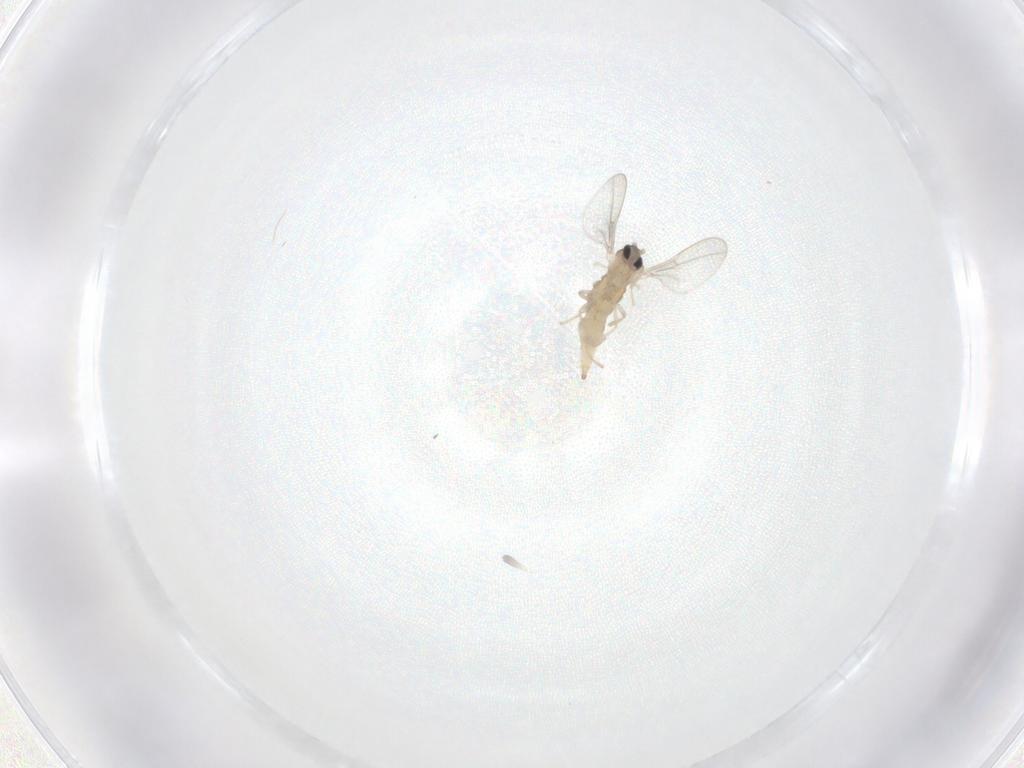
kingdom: Animalia
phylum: Arthropoda
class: Insecta
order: Diptera
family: Cecidomyiidae
